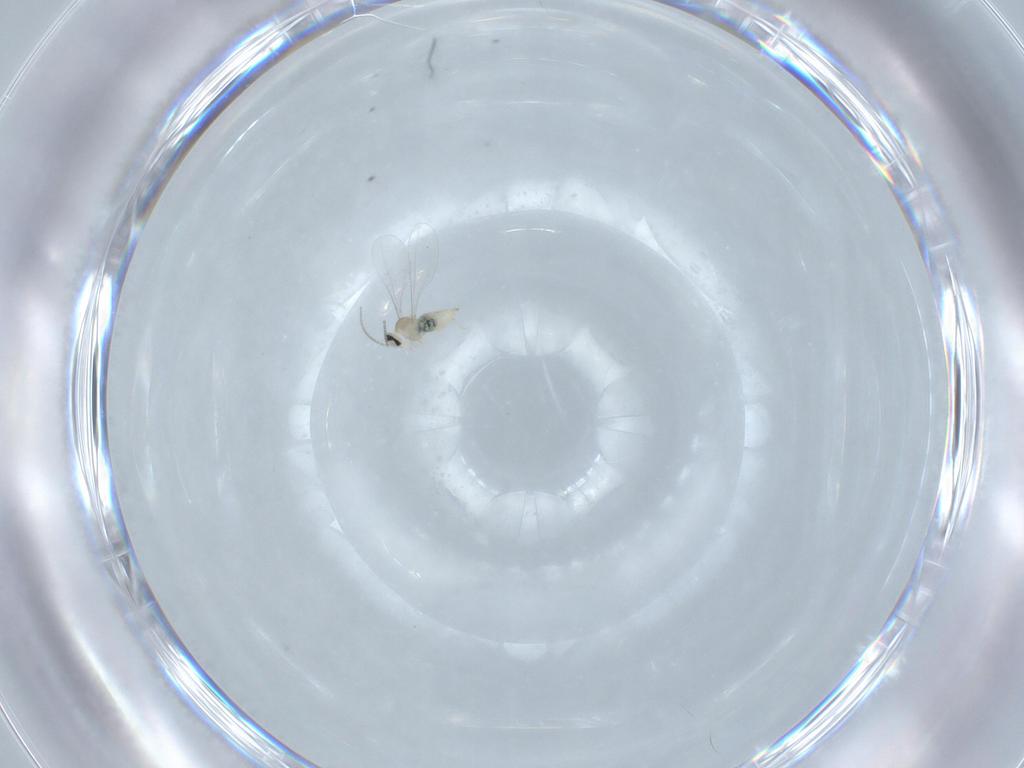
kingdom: Animalia
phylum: Arthropoda
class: Insecta
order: Diptera
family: Cecidomyiidae
